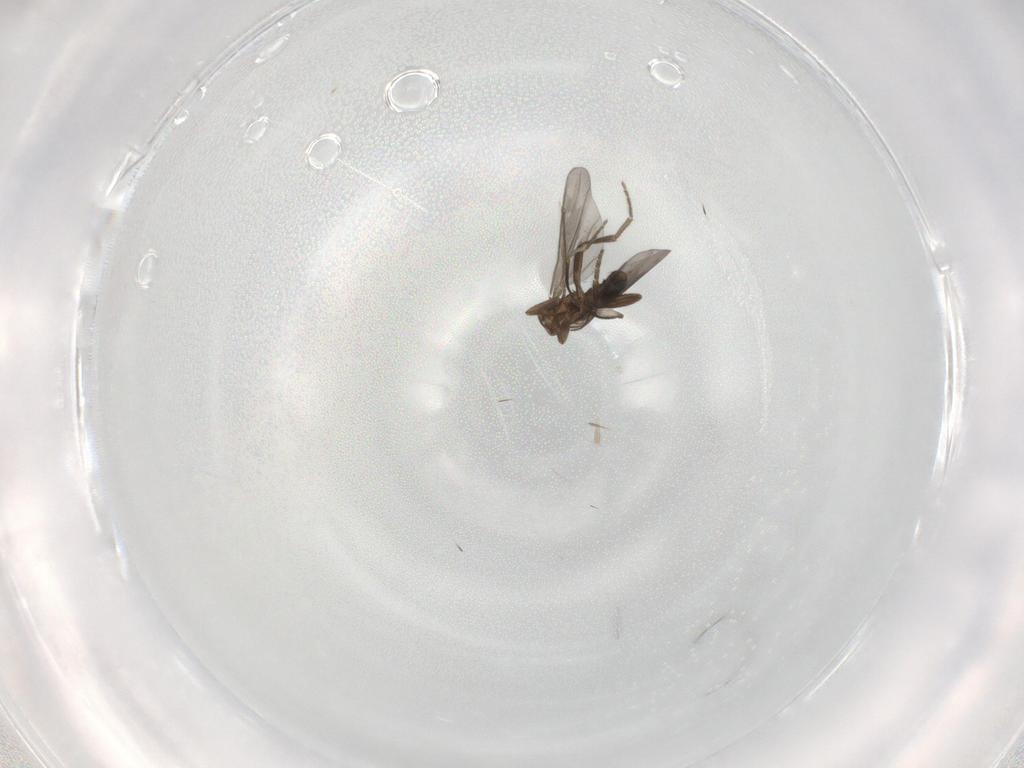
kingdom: Animalia
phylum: Arthropoda
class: Insecta
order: Diptera
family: Phoridae
